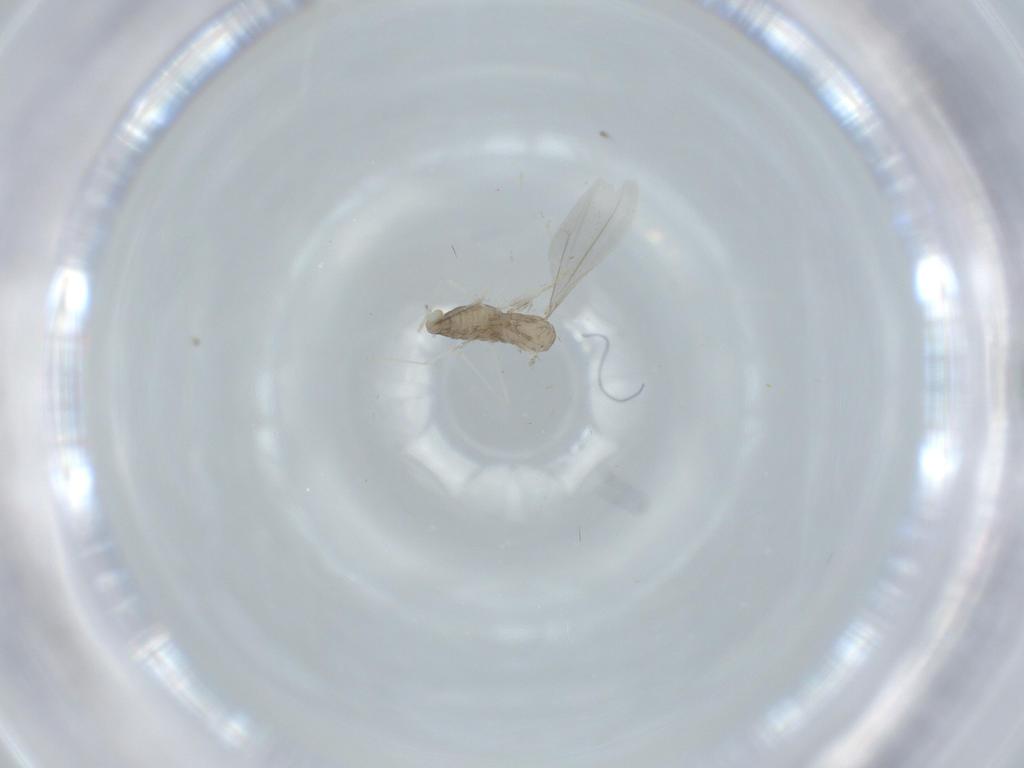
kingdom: Animalia
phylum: Arthropoda
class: Insecta
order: Diptera
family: Cecidomyiidae
